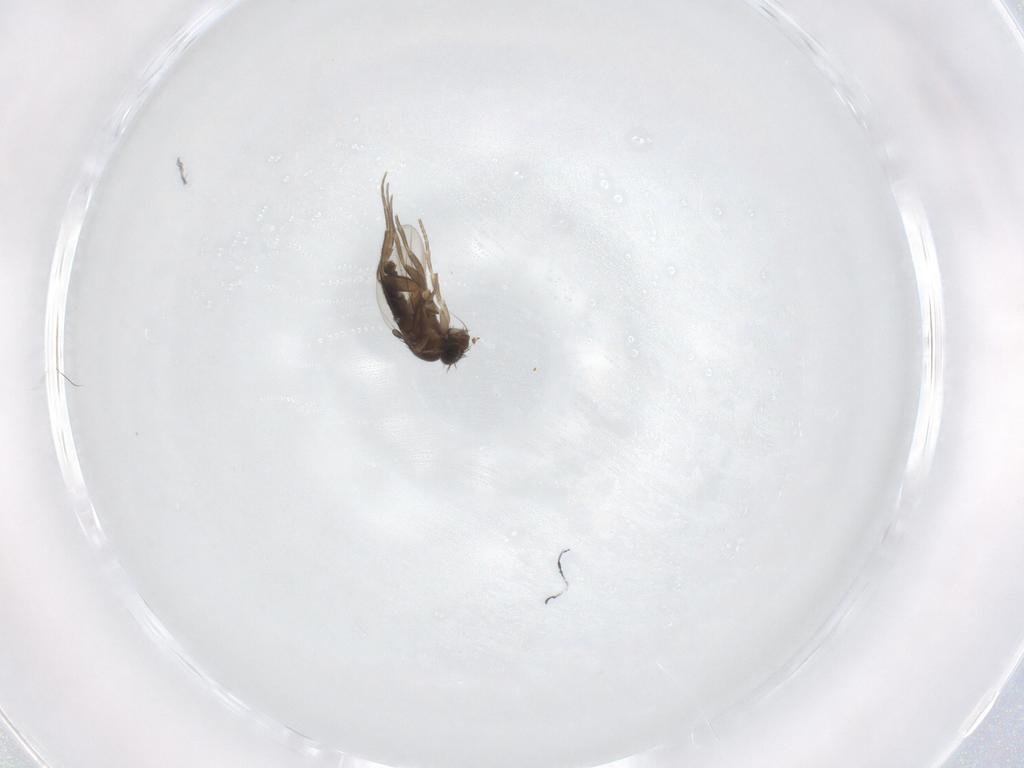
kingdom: Animalia
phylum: Arthropoda
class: Insecta
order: Diptera
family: Phoridae
